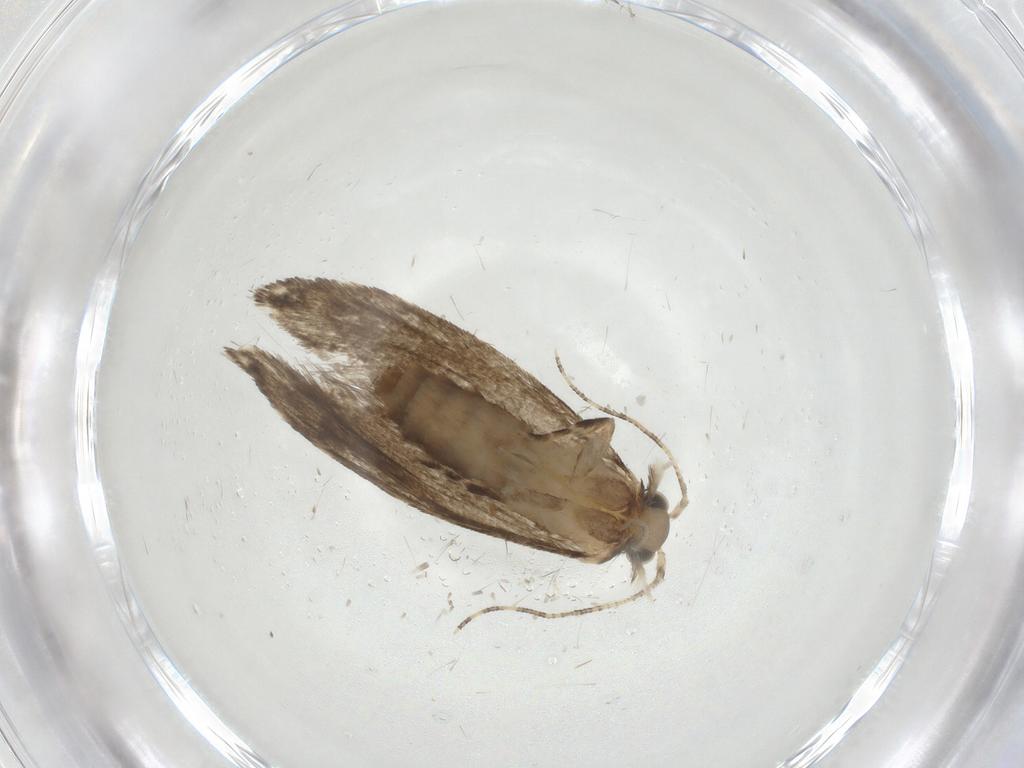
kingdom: Animalia
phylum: Arthropoda
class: Insecta
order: Lepidoptera
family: Tineidae
